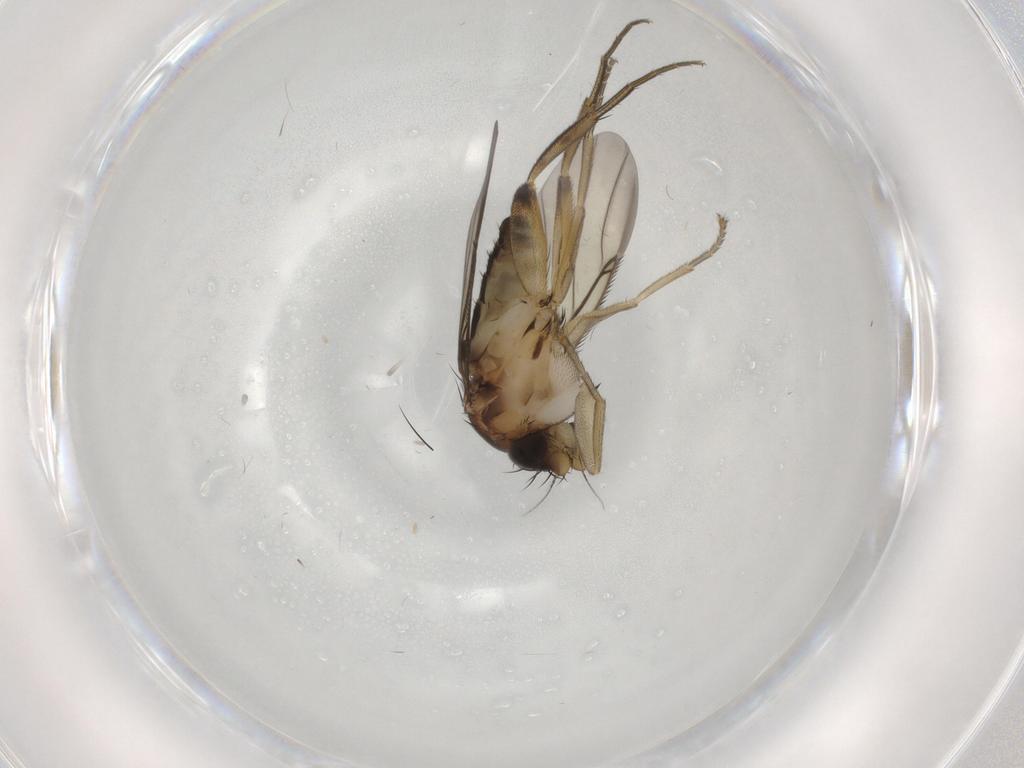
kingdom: Animalia
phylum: Arthropoda
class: Insecta
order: Diptera
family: Phoridae
